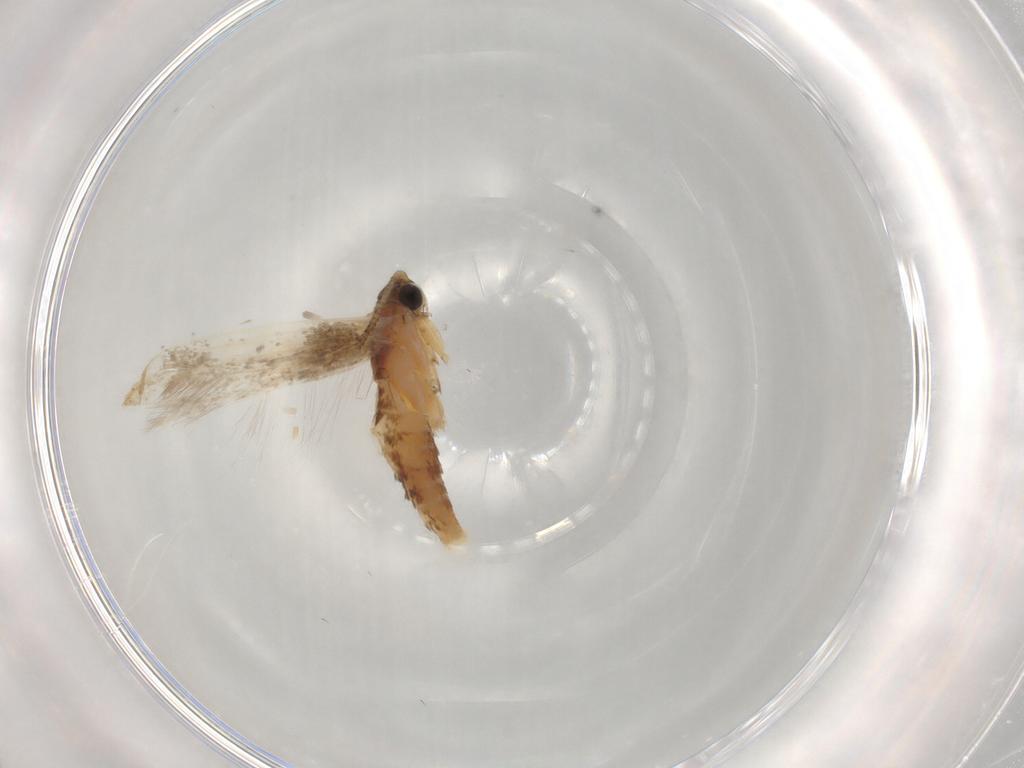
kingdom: Animalia
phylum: Arthropoda
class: Insecta
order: Lepidoptera
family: Tineidae
